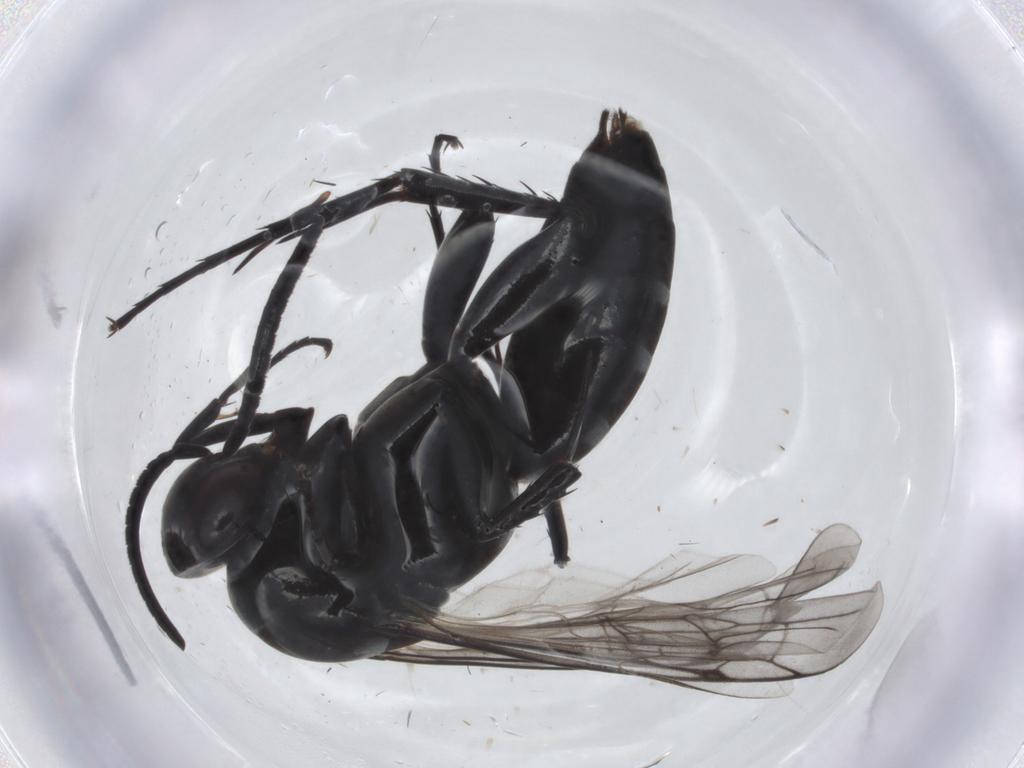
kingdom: Animalia
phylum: Arthropoda
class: Insecta
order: Hymenoptera
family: Pompilidae
